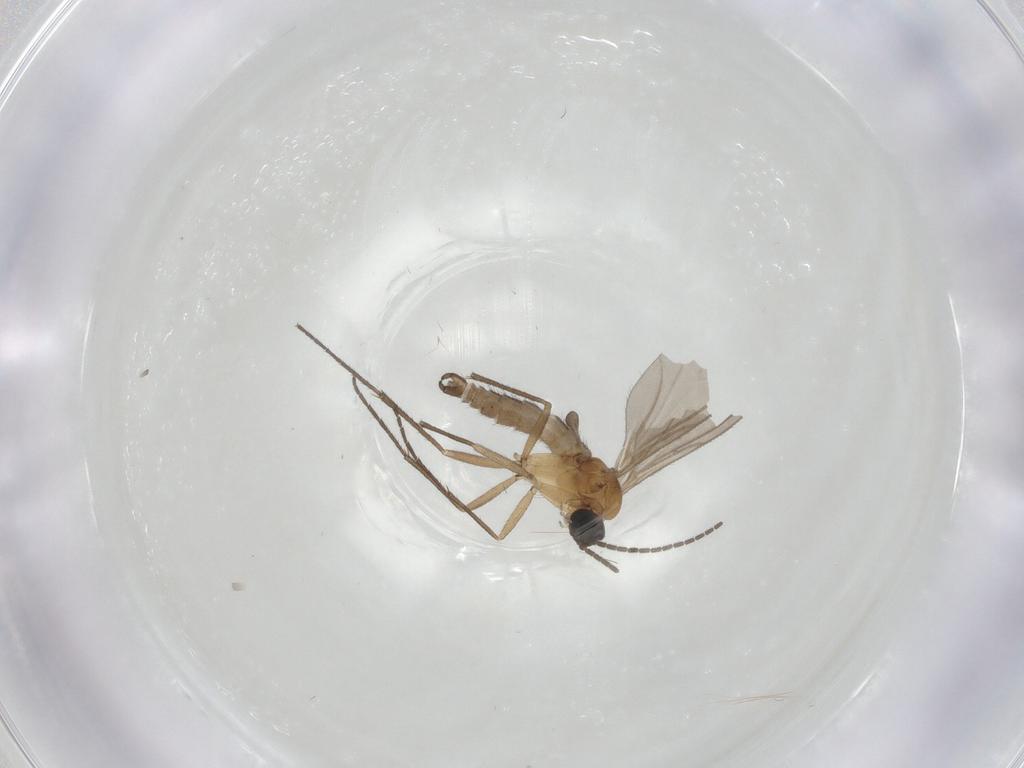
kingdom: Animalia
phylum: Arthropoda
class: Insecta
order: Diptera
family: Sciaridae
